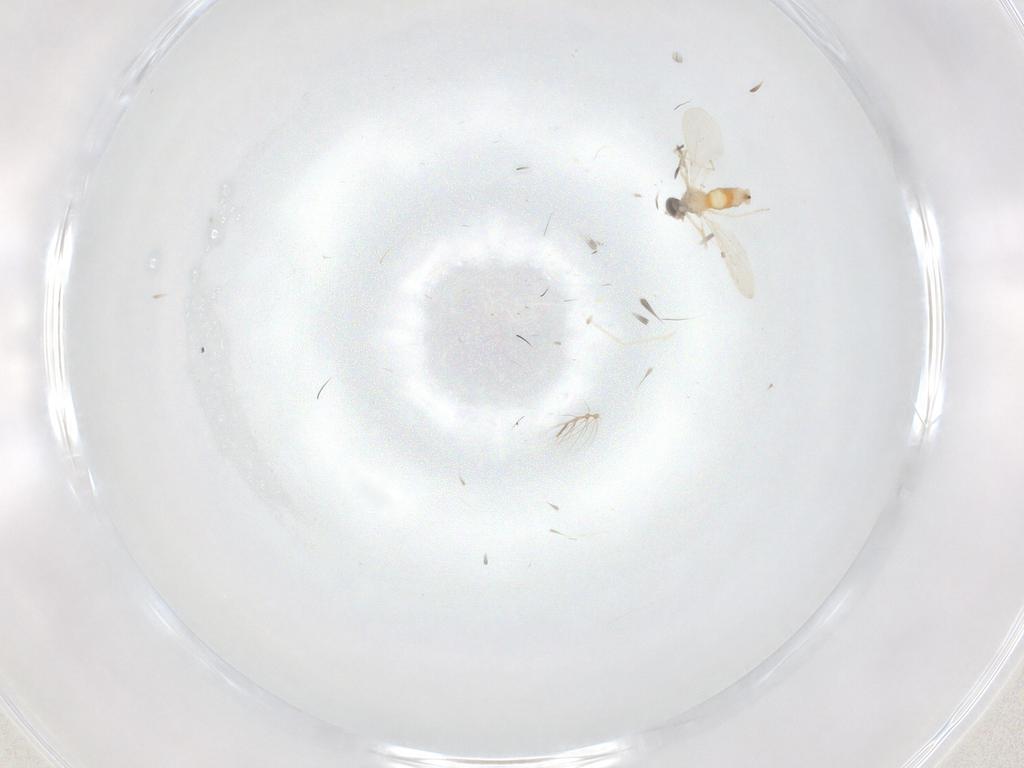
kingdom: Animalia
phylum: Arthropoda
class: Insecta
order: Diptera
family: Cecidomyiidae
